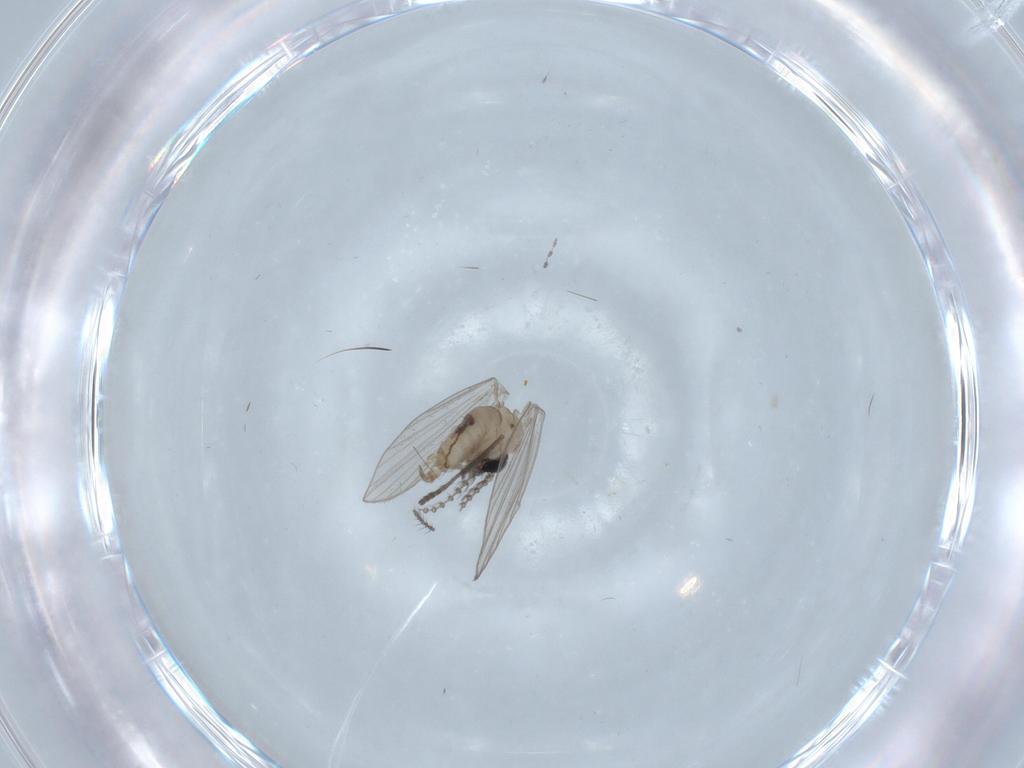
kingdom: Animalia
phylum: Arthropoda
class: Insecta
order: Diptera
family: Psychodidae
